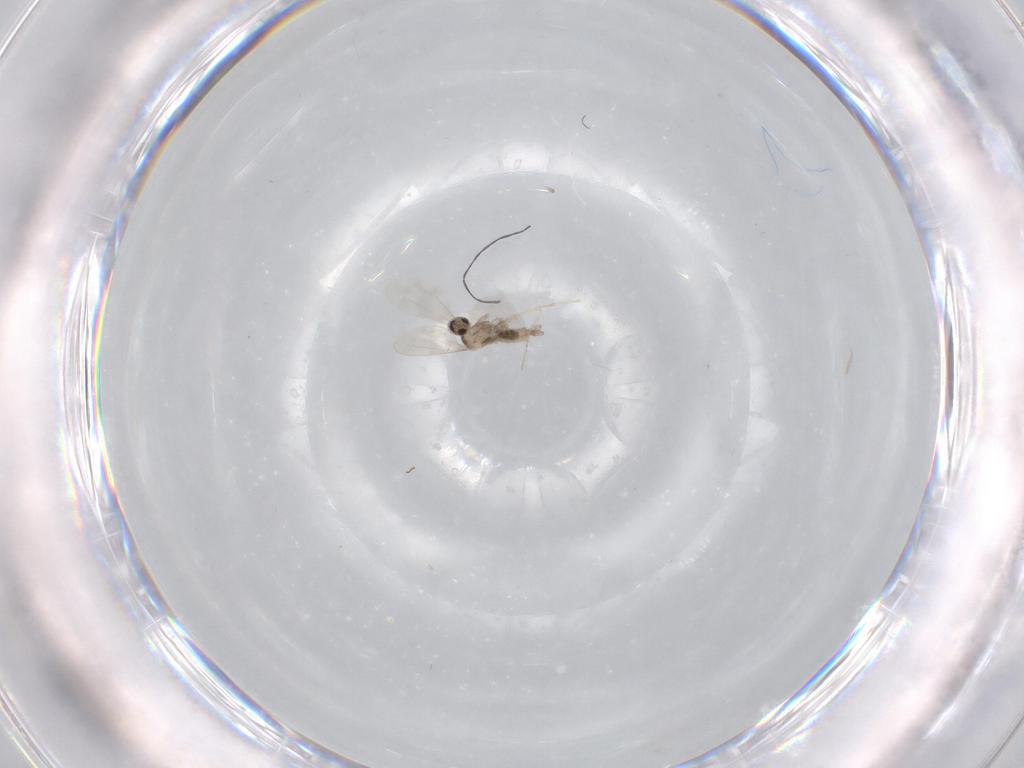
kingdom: Animalia
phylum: Arthropoda
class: Insecta
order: Diptera
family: Cecidomyiidae
